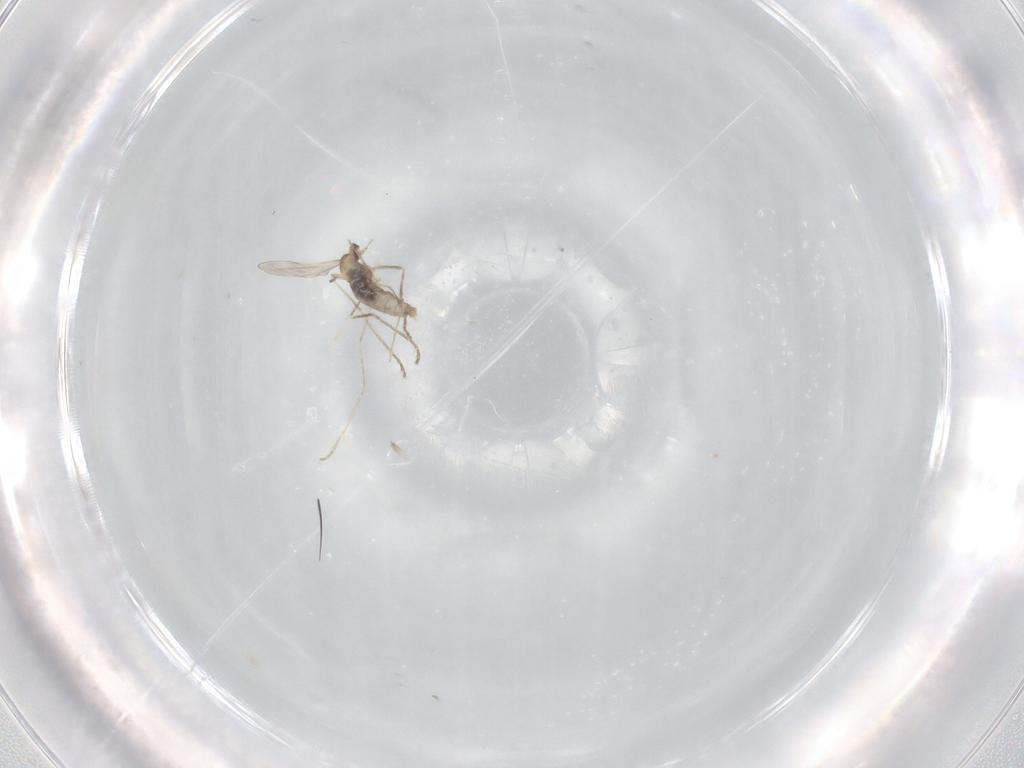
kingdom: Animalia
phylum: Arthropoda
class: Insecta
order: Diptera
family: Cecidomyiidae
